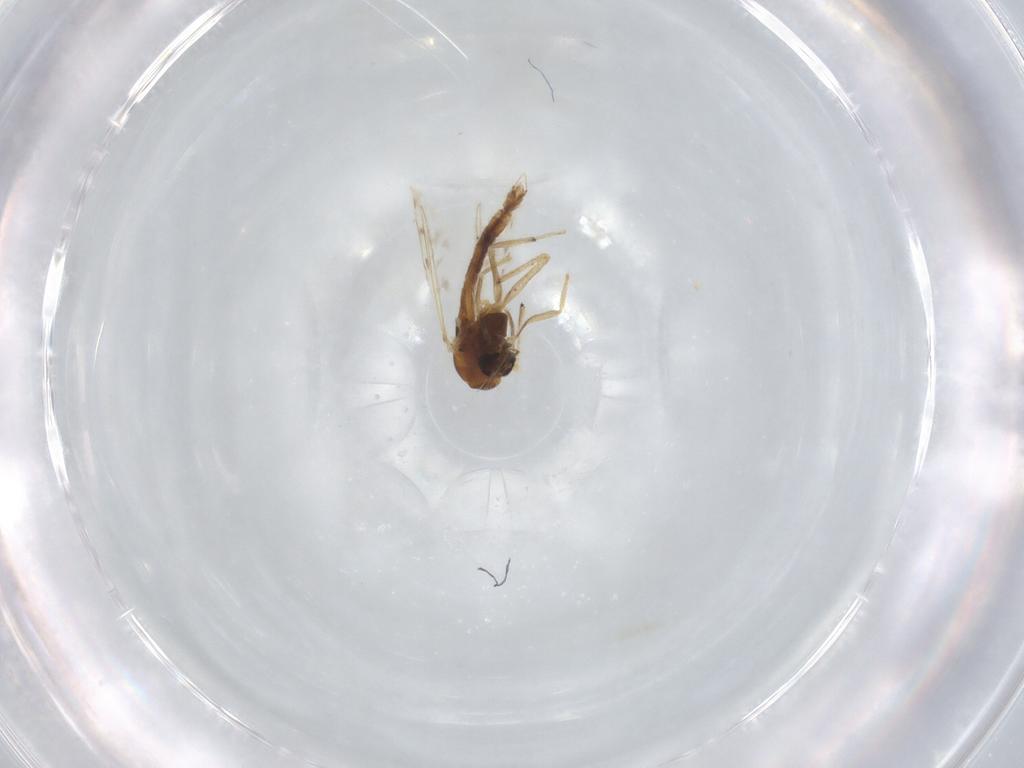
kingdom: Animalia
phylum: Arthropoda
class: Insecta
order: Diptera
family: Chironomidae
